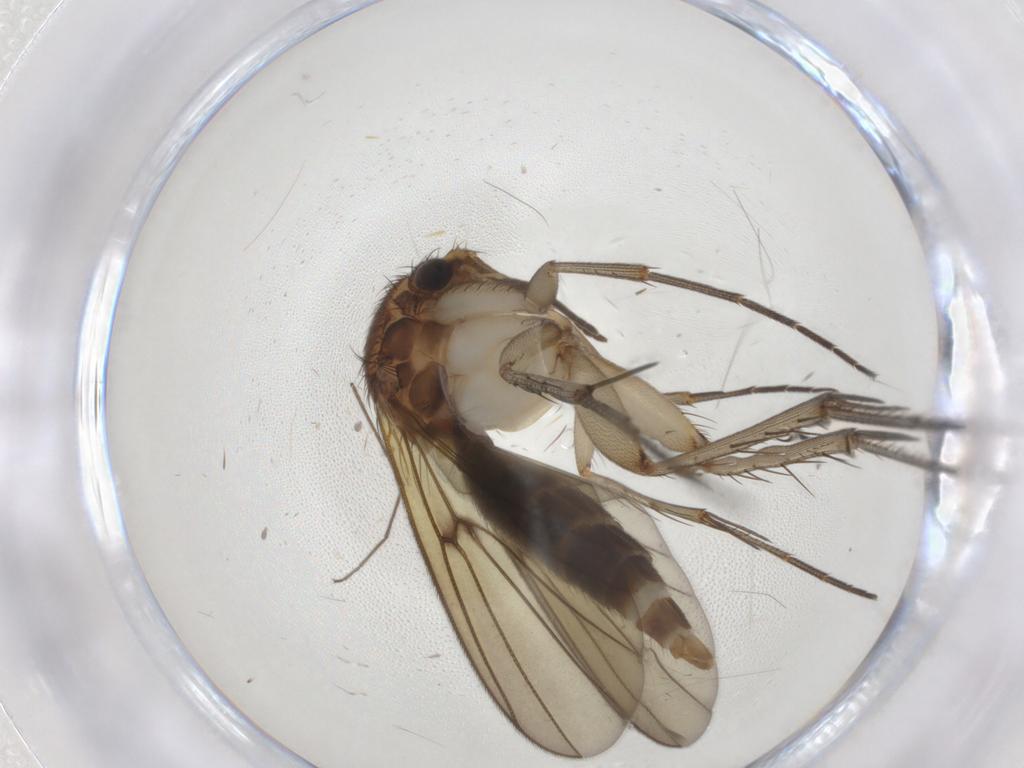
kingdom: Animalia
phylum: Arthropoda
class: Insecta
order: Diptera
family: Mycetophilidae
